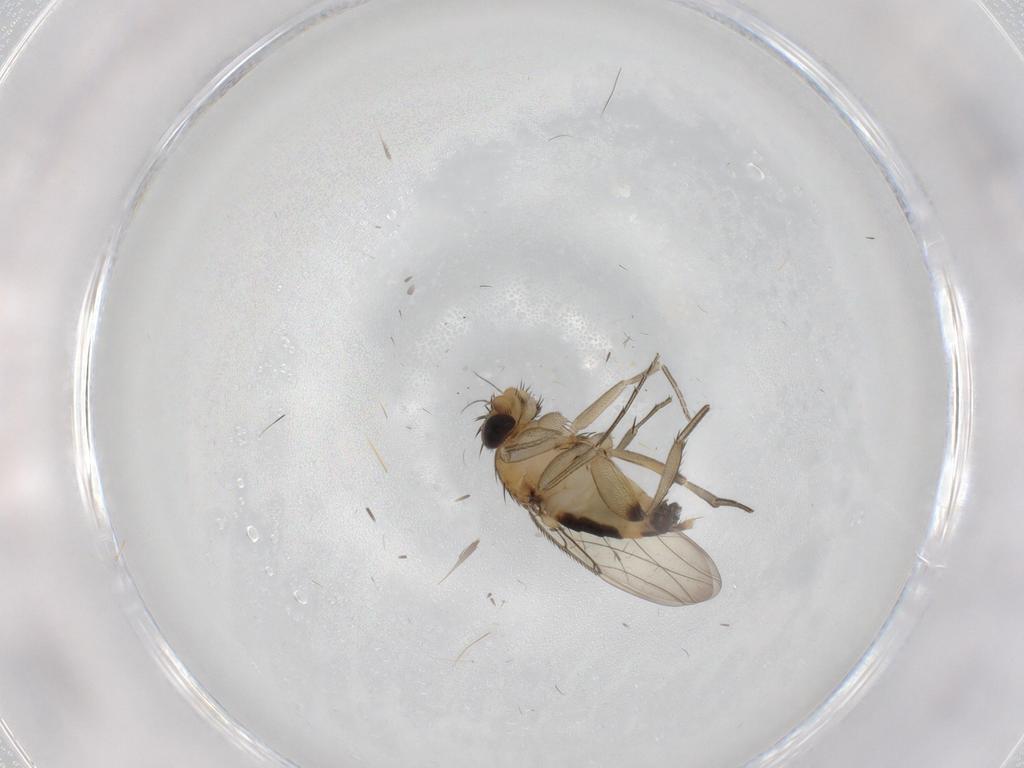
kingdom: Animalia
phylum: Arthropoda
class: Insecta
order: Diptera
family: Phoridae
